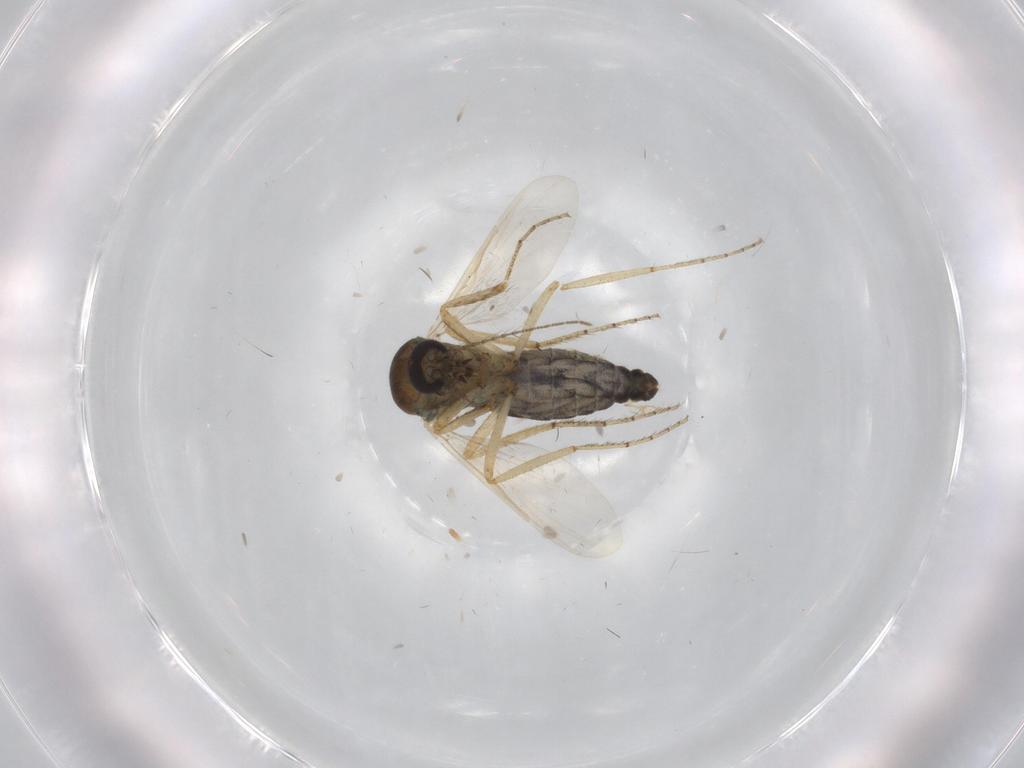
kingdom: Animalia
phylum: Arthropoda
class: Insecta
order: Diptera
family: Ceratopogonidae
